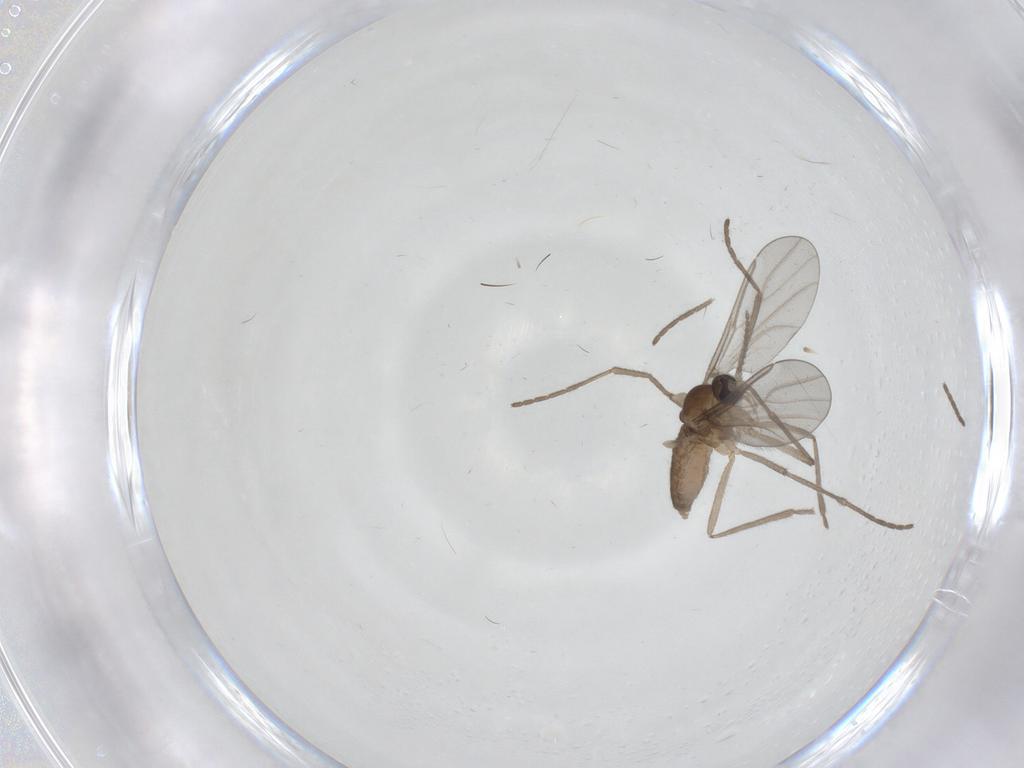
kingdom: Animalia
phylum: Arthropoda
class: Insecta
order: Diptera
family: Cecidomyiidae
